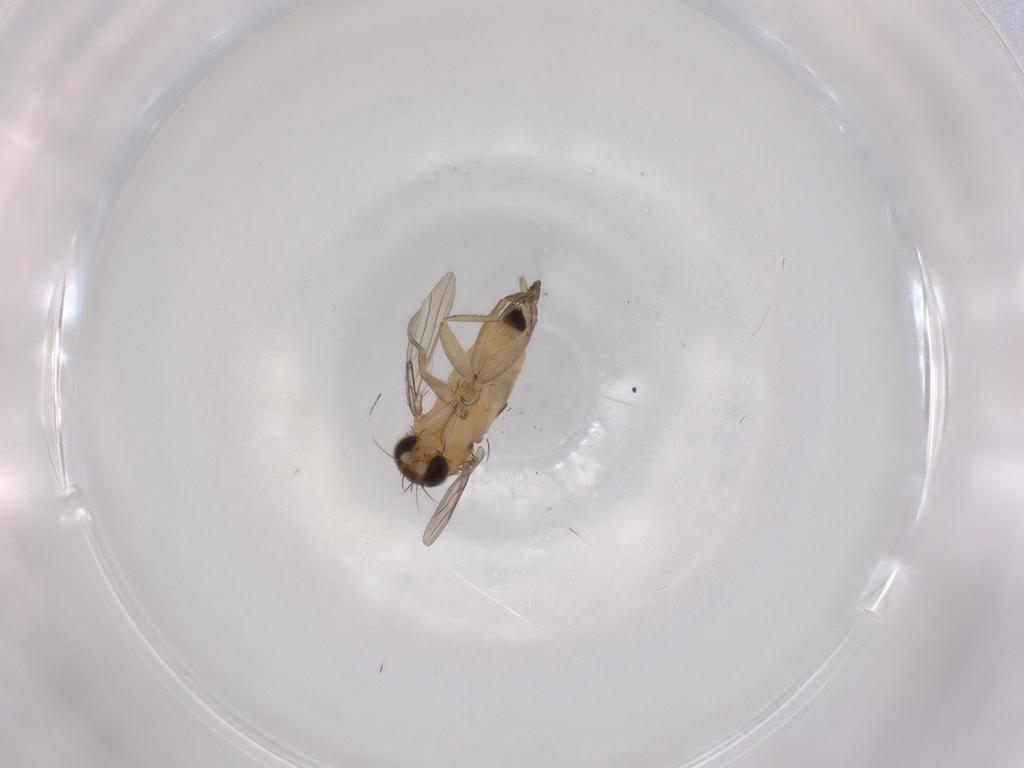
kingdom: Animalia
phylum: Arthropoda
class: Insecta
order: Diptera
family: Phoridae
